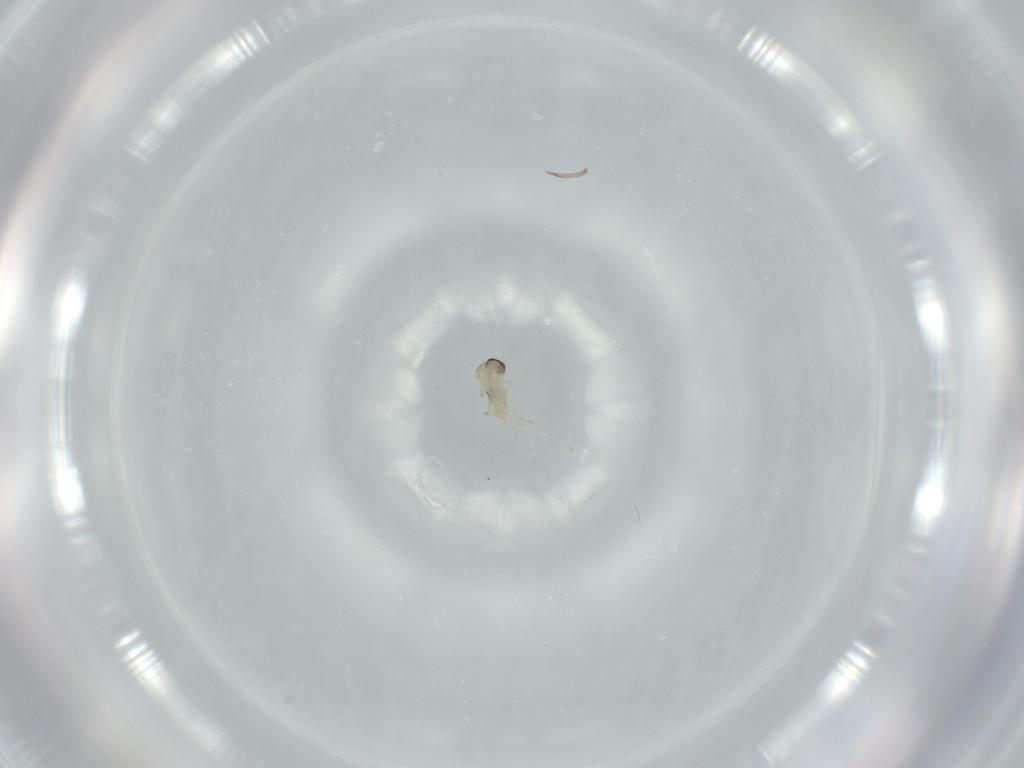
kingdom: Animalia
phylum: Arthropoda
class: Insecta
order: Diptera
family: Cecidomyiidae
